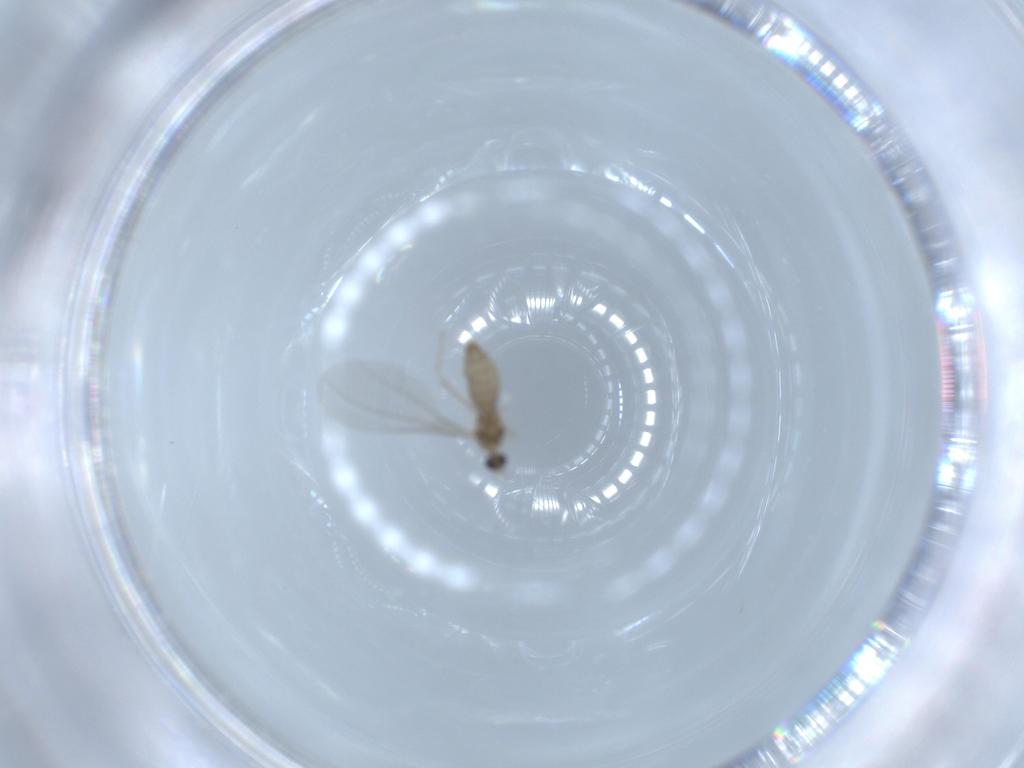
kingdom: Animalia
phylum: Arthropoda
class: Insecta
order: Diptera
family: Cecidomyiidae
